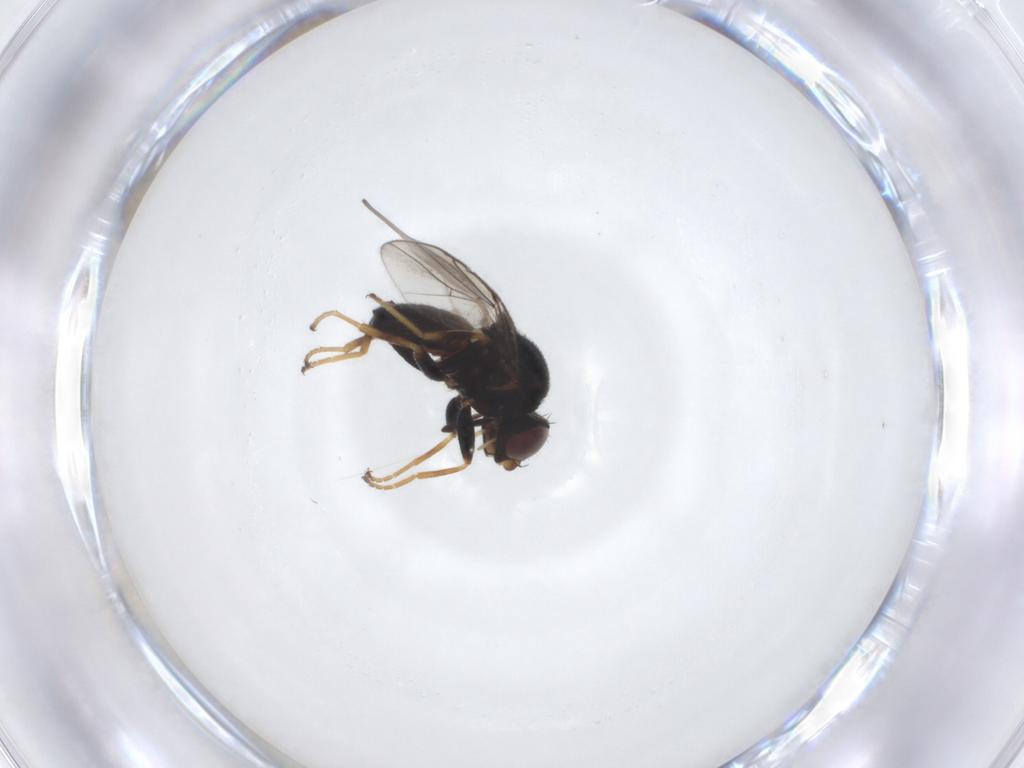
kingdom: Animalia
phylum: Arthropoda
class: Insecta
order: Diptera
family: Chloropidae
